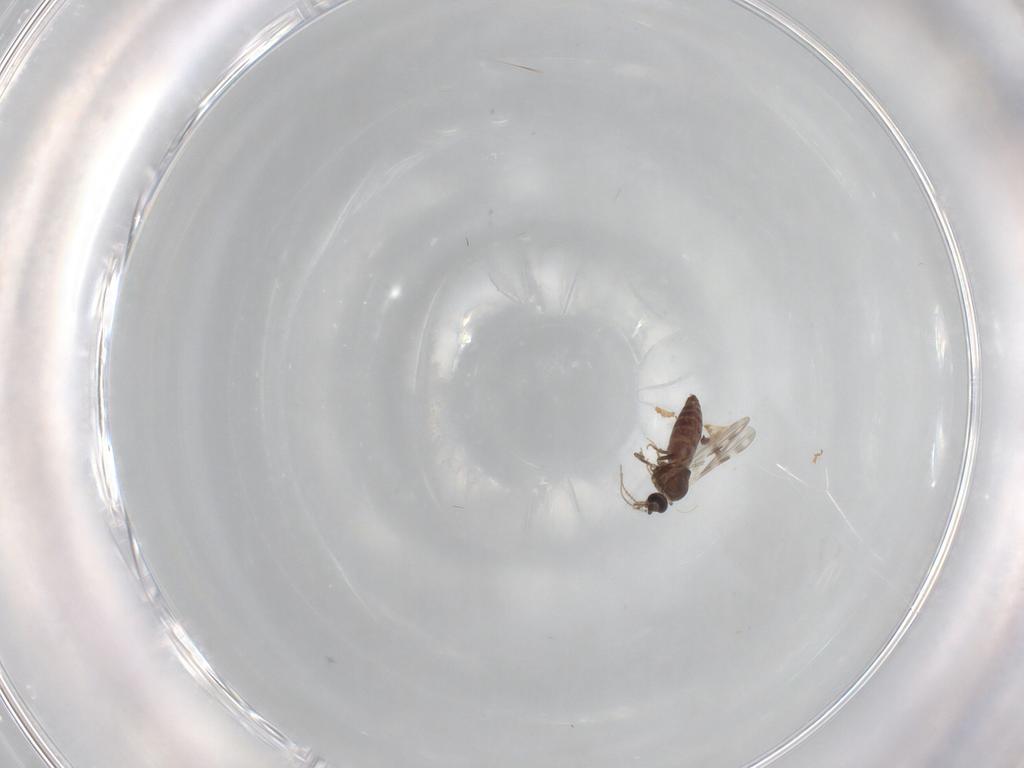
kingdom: Animalia
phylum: Arthropoda
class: Insecta
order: Diptera
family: Ceratopogonidae
